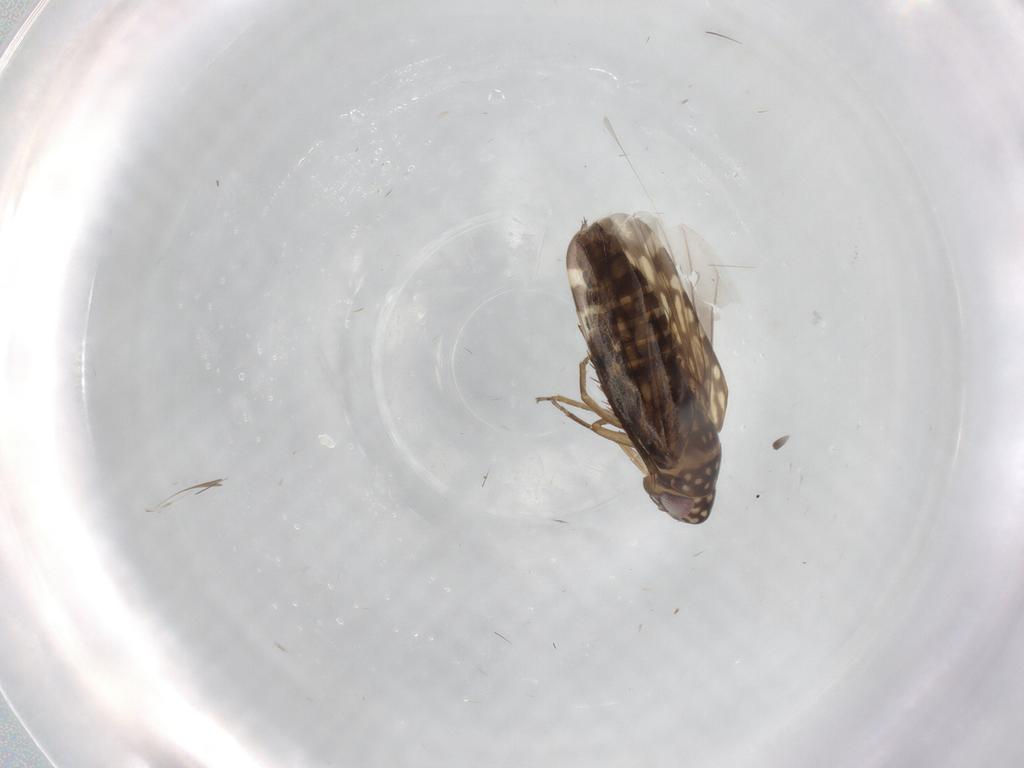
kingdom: Animalia
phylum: Arthropoda
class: Insecta
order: Hemiptera
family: Cicadellidae
